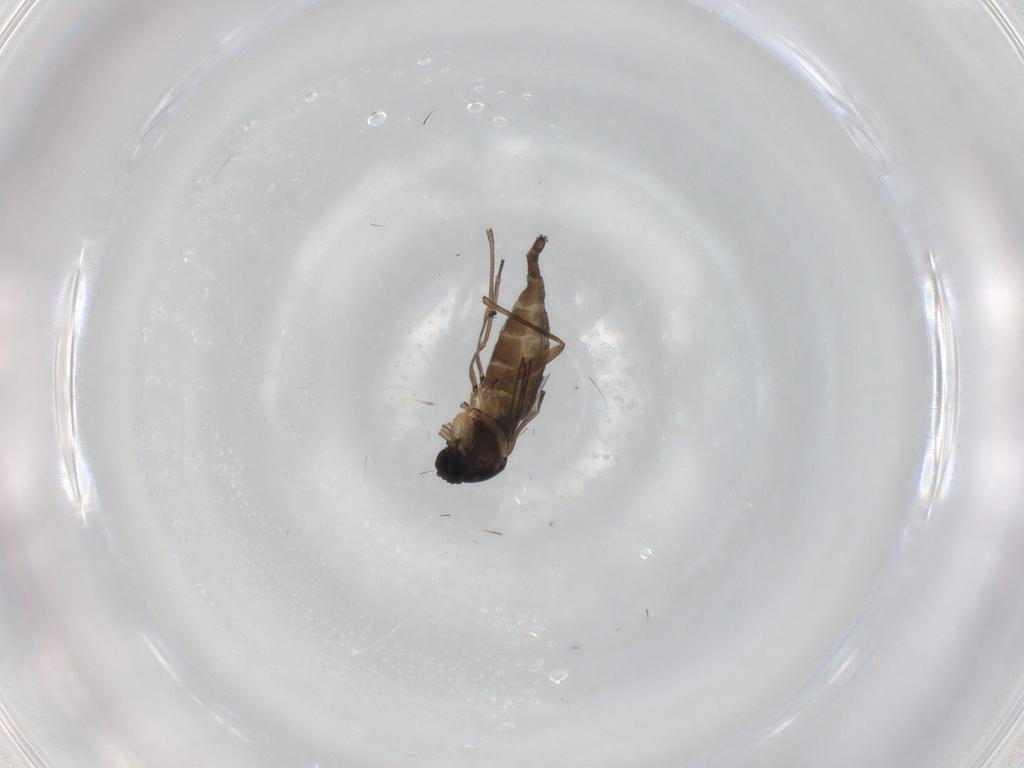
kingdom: Animalia
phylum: Arthropoda
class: Insecta
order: Diptera
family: Sciaridae
